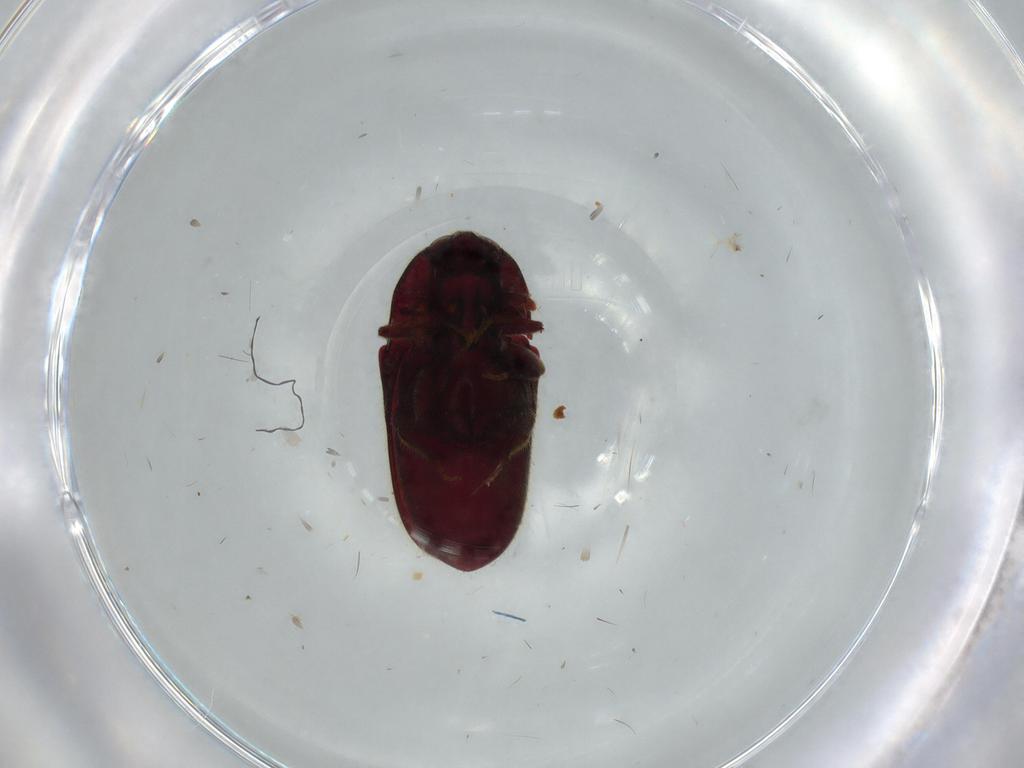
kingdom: Animalia
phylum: Arthropoda
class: Insecta
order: Coleoptera
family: Throscidae
